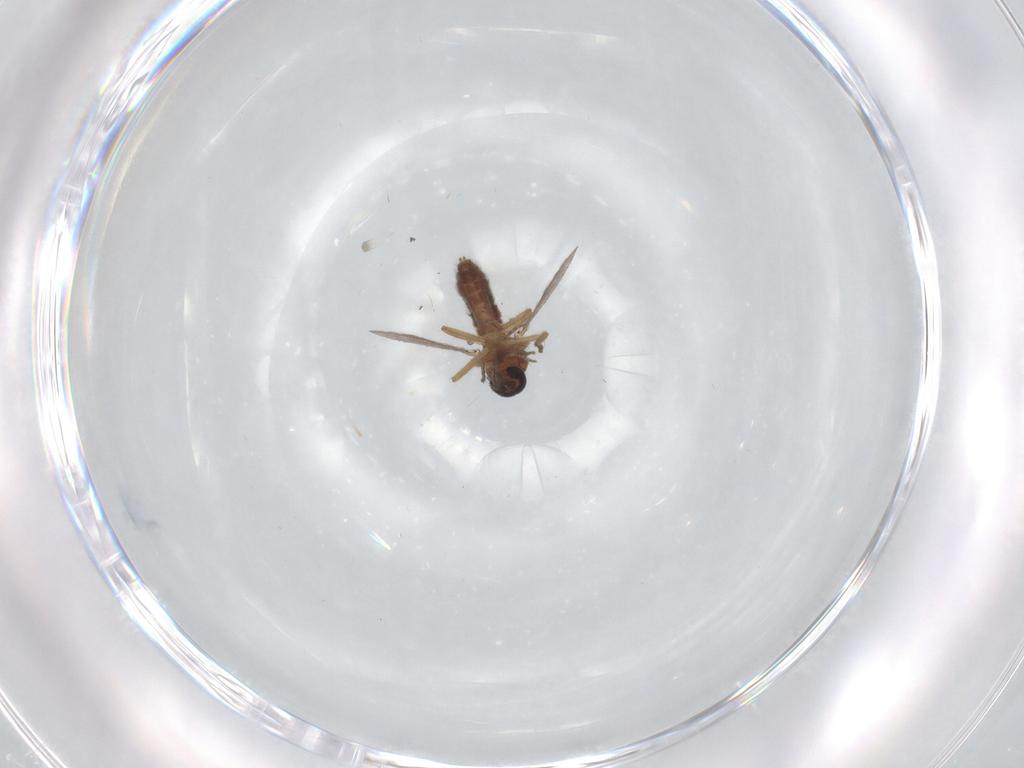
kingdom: Animalia
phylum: Arthropoda
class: Insecta
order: Diptera
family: Ceratopogonidae
